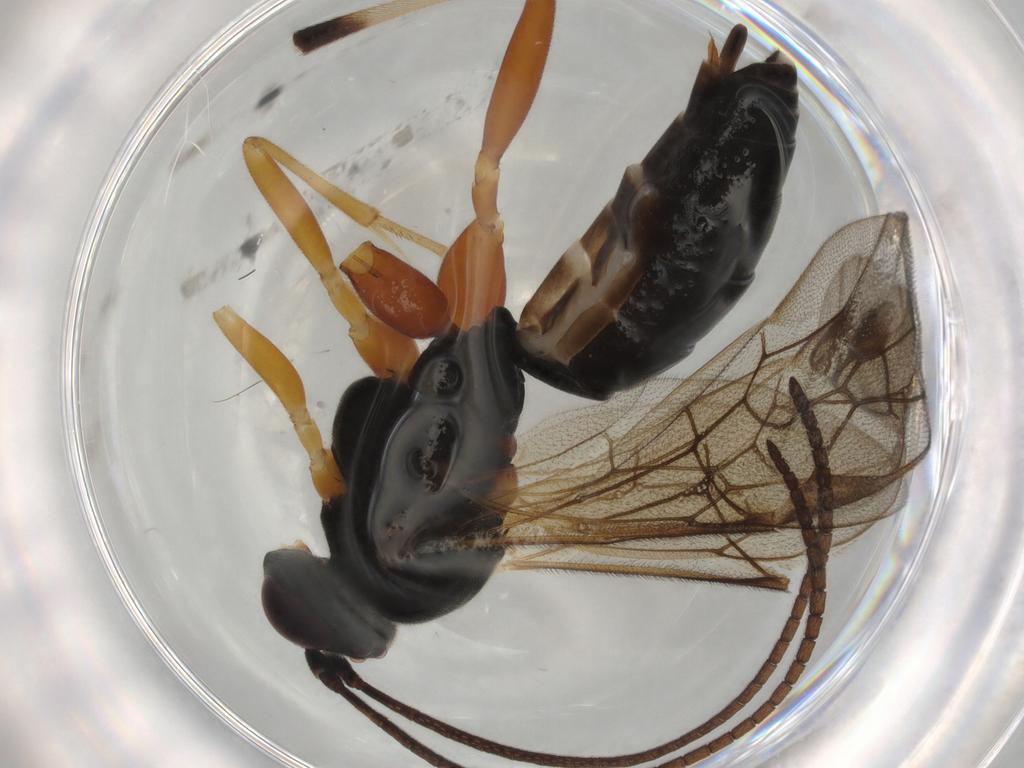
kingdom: Animalia
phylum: Arthropoda
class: Insecta
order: Hymenoptera
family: Ichneumonidae
